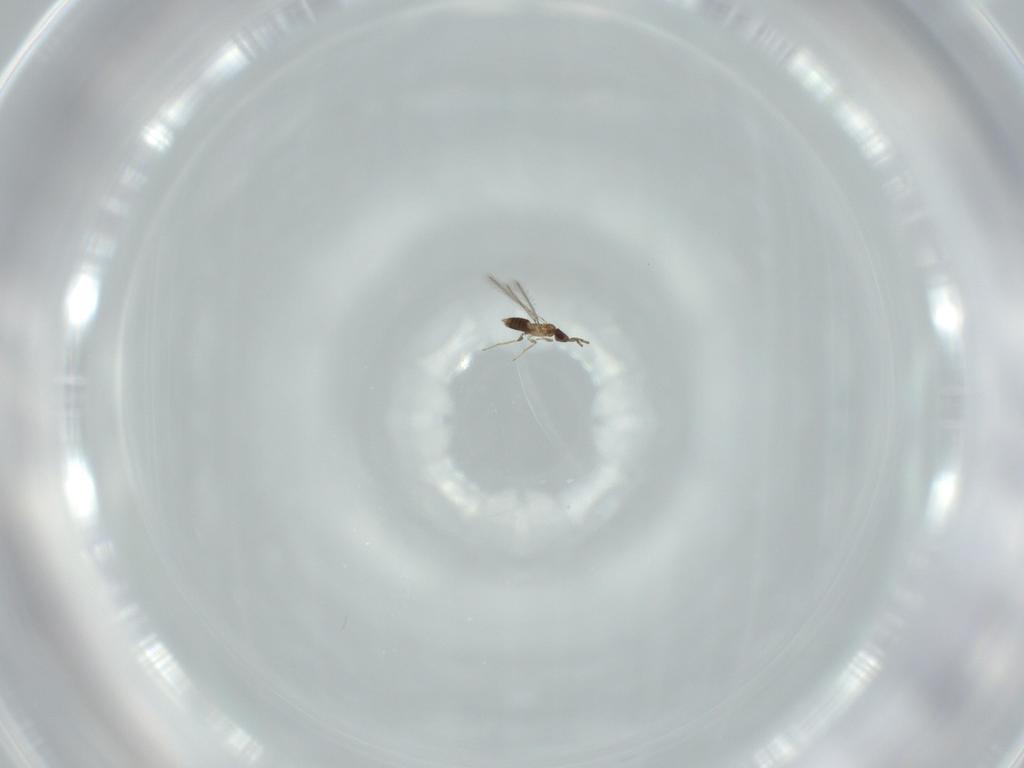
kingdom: Animalia
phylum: Arthropoda
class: Insecta
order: Hymenoptera
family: Mymaridae
